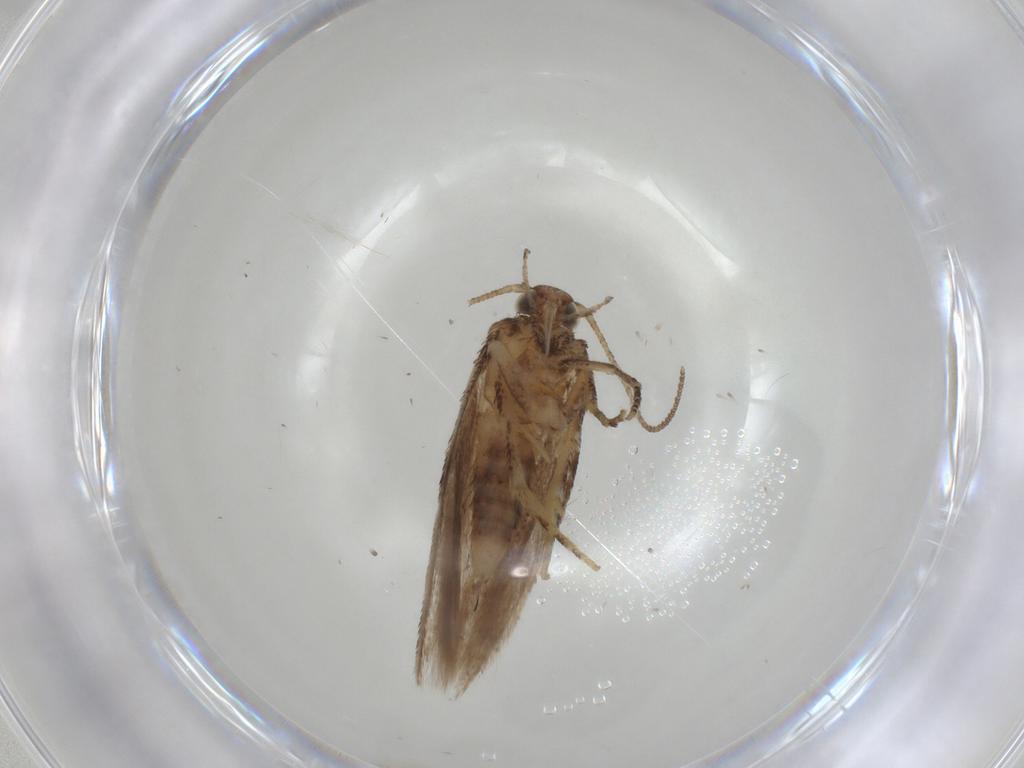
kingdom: Animalia
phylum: Arthropoda
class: Insecta
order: Lepidoptera
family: Gelechiidae
